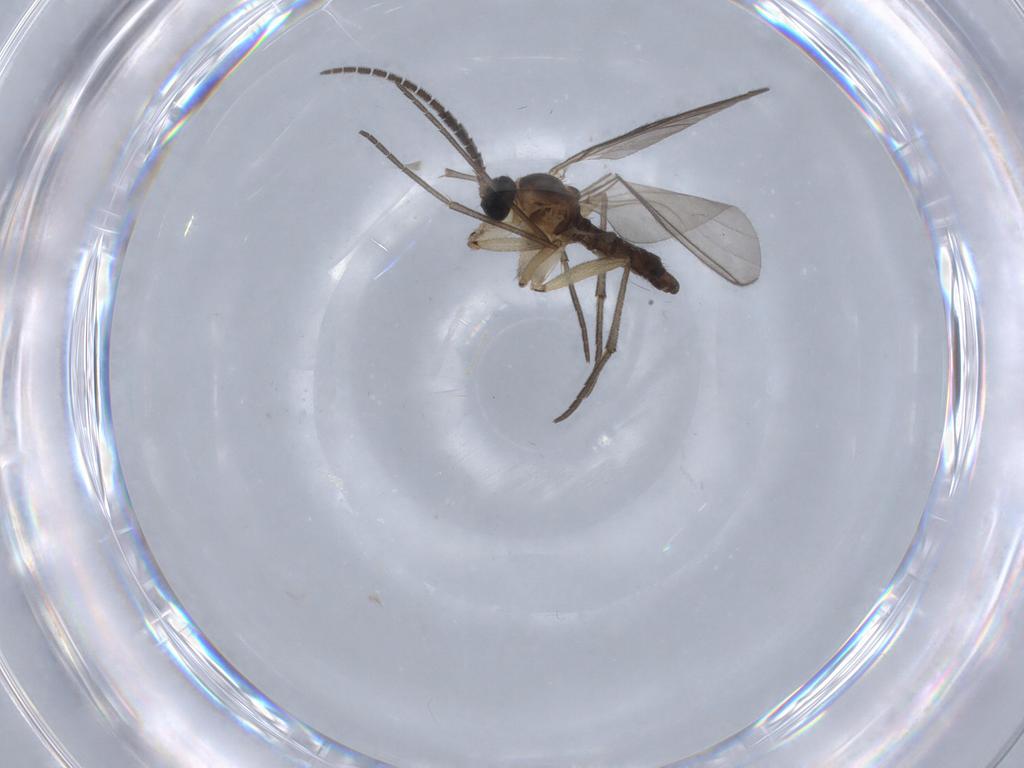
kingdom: Animalia
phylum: Arthropoda
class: Insecta
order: Diptera
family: Sciaridae
